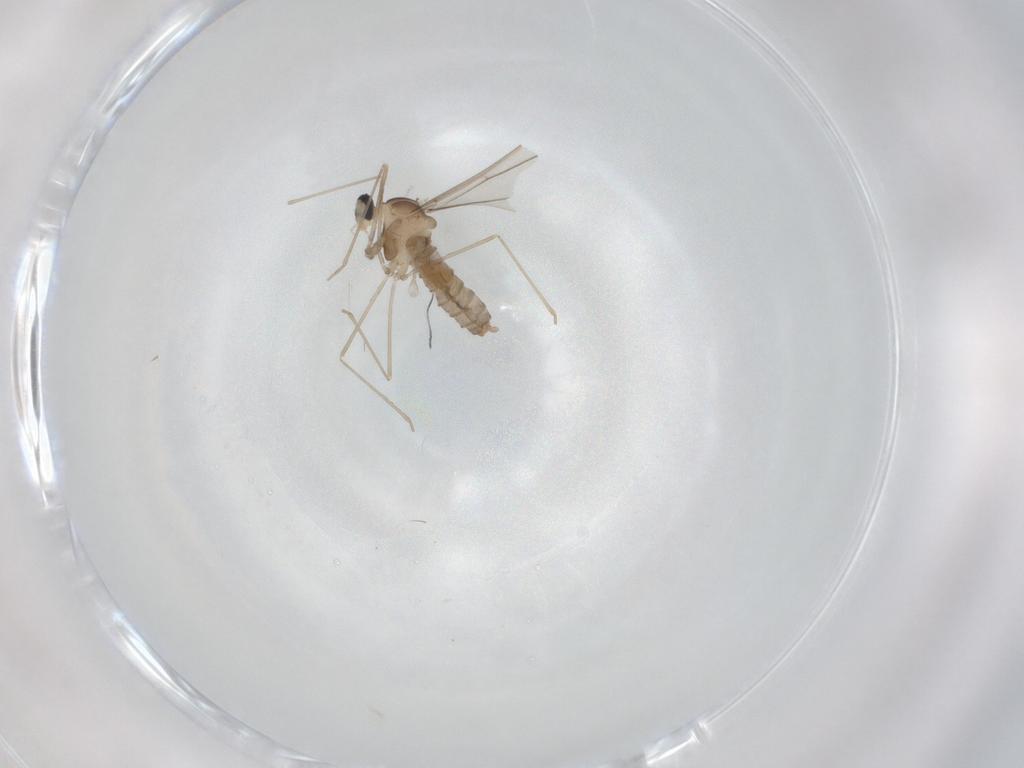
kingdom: Animalia
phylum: Arthropoda
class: Insecta
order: Diptera
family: Cecidomyiidae
